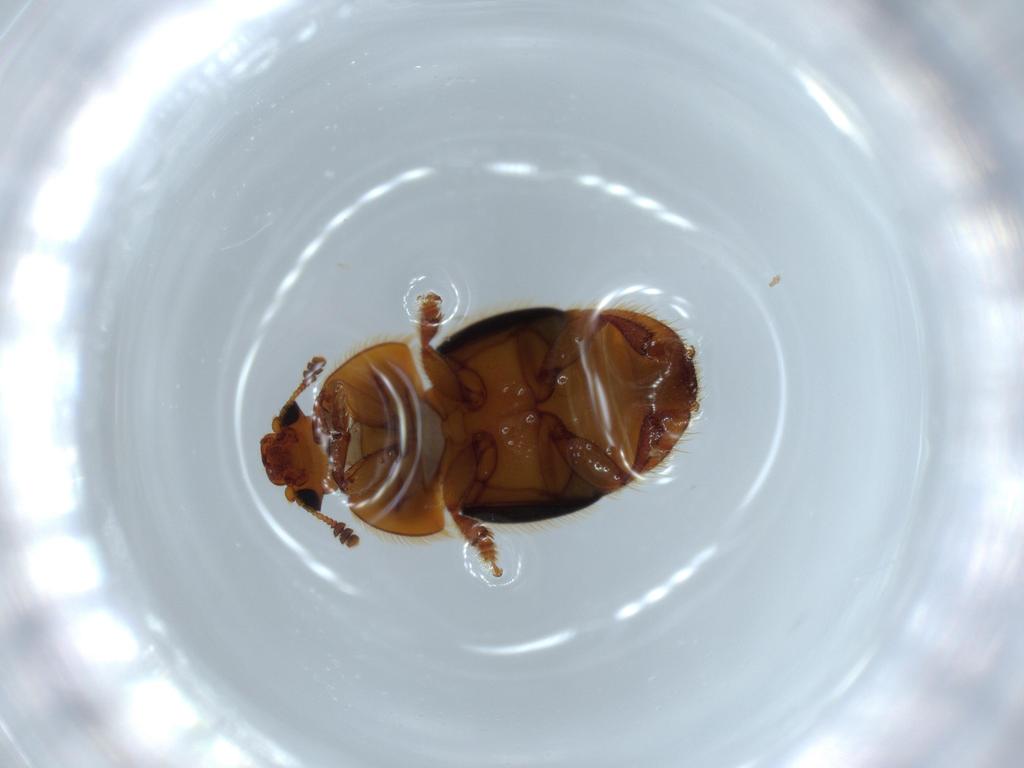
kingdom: Animalia
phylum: Arthropoda
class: Insecta
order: Coleoptera
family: Nitidulidae
